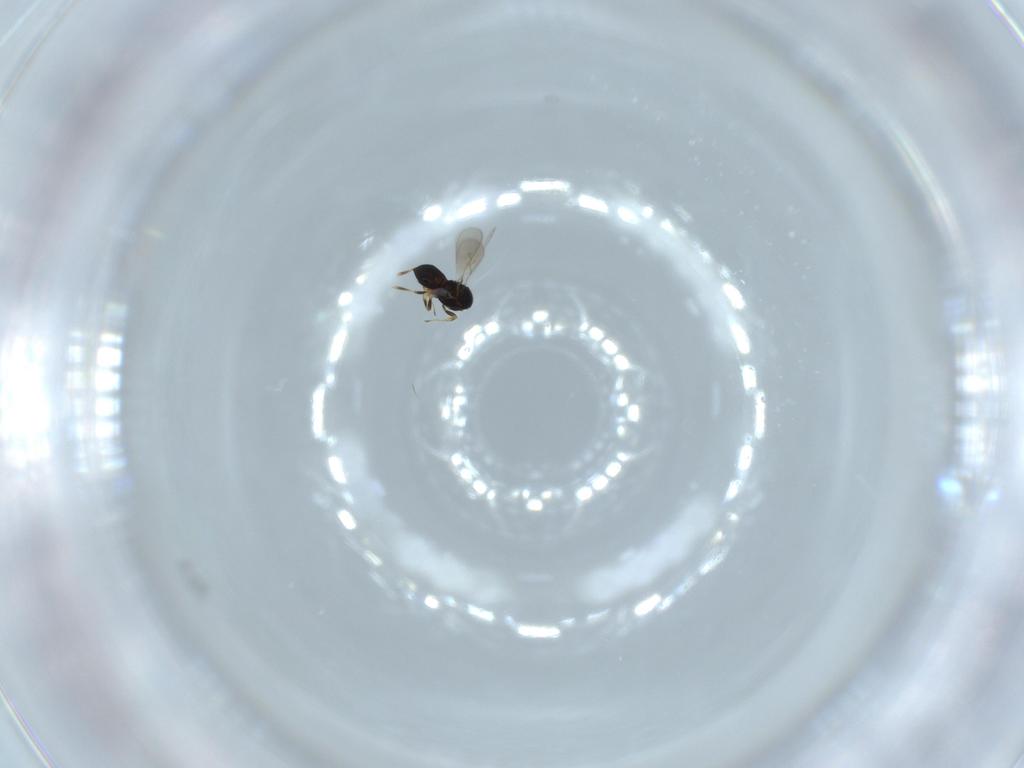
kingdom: Animalia
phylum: Arthropoda
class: Insecta
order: Hymenoptera
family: Scelionidae
